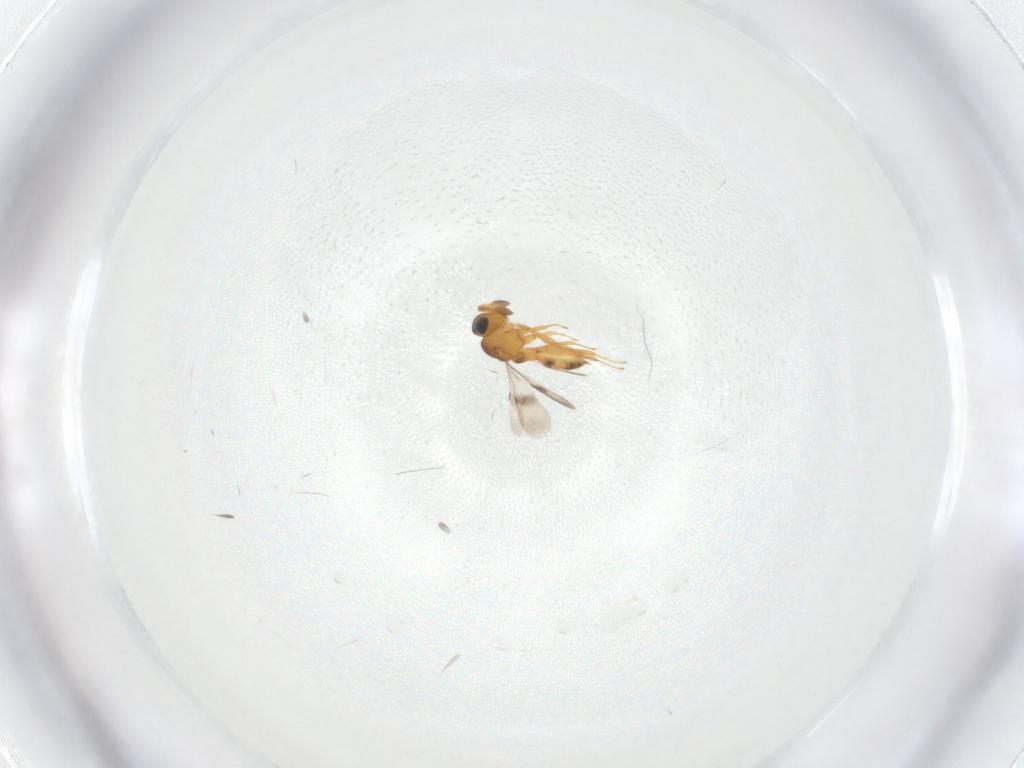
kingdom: Animalia
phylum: Arthropoda
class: Insecta
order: Hymenoptera
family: Scelionidae
